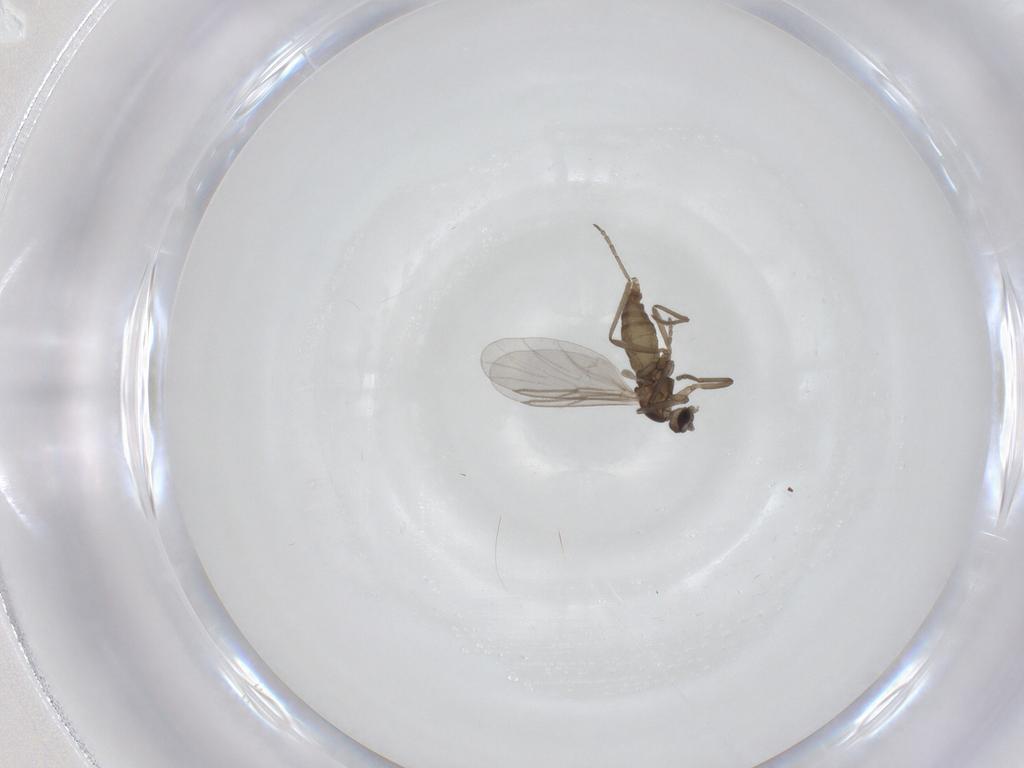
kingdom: Animalia
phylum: Arthropoda
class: Insecta
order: Diptera
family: Cecidomyiidae
